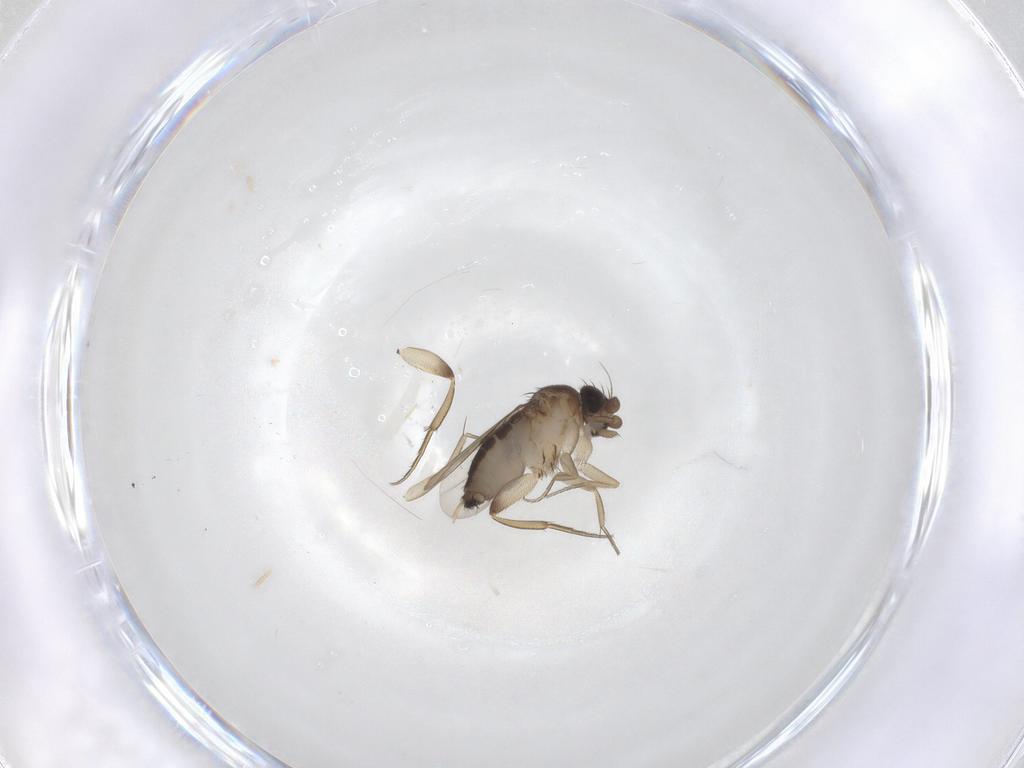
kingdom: Animalia
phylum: Arthropoda
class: Insecta
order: Diptera
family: Phoridae
